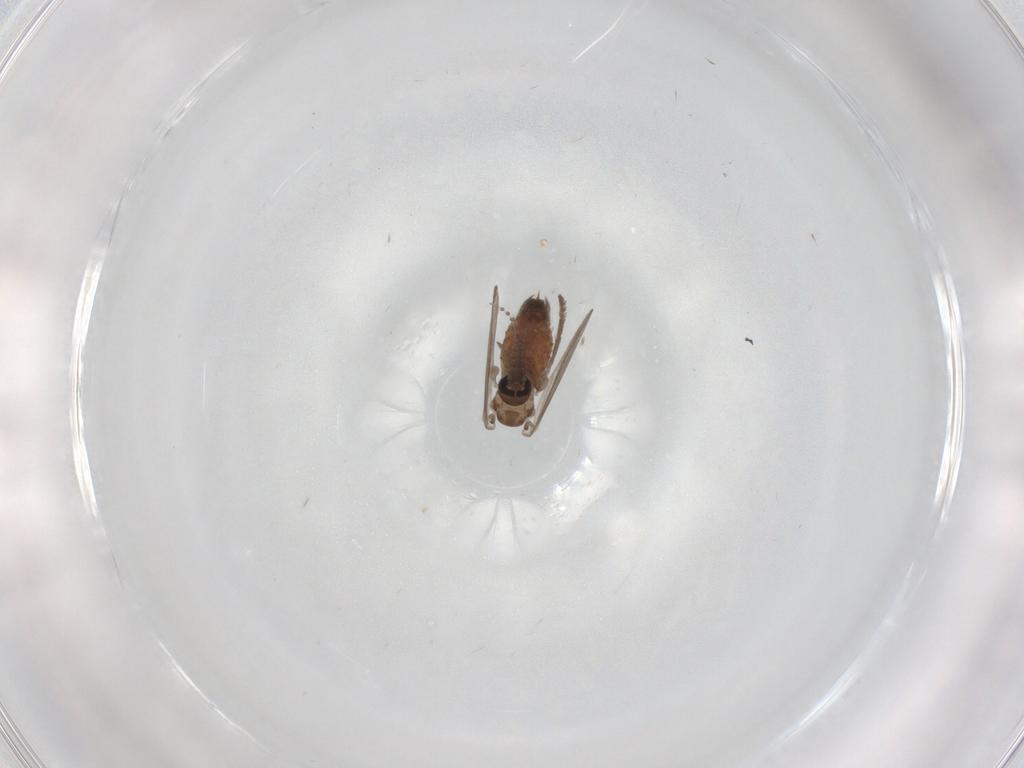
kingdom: Animalia
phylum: Arthropoda
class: Insecta
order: Diptera
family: Psychodidae
